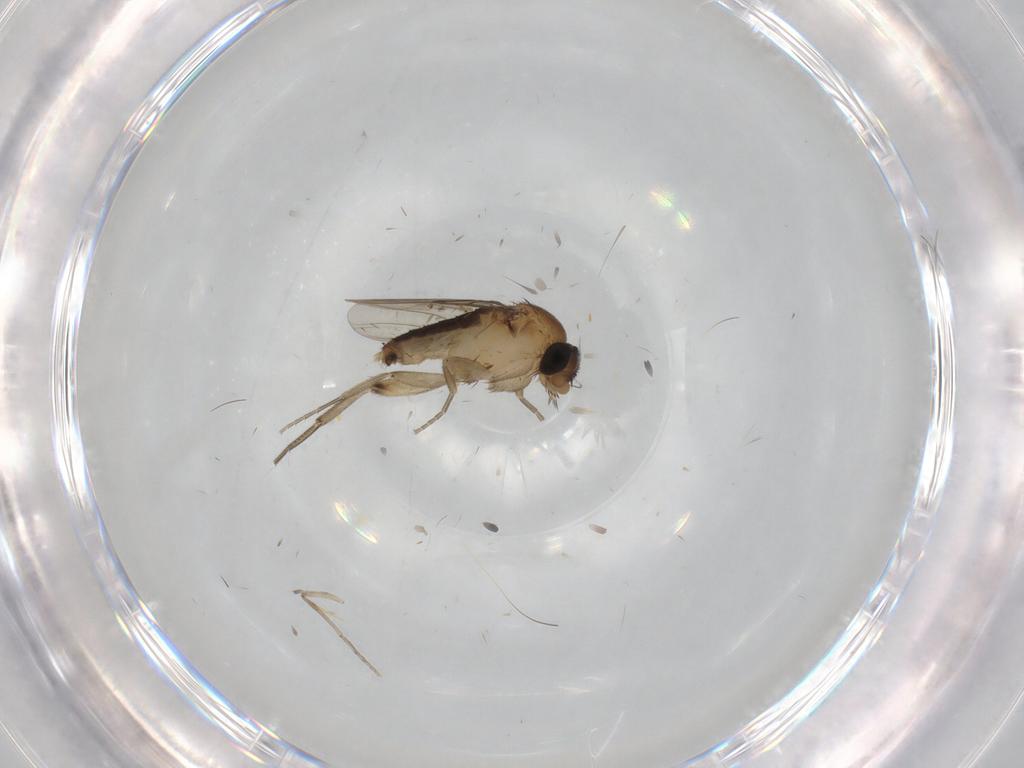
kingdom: Animalia
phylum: Arthropoda
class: Insecta
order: Diptera
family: Phoridae
